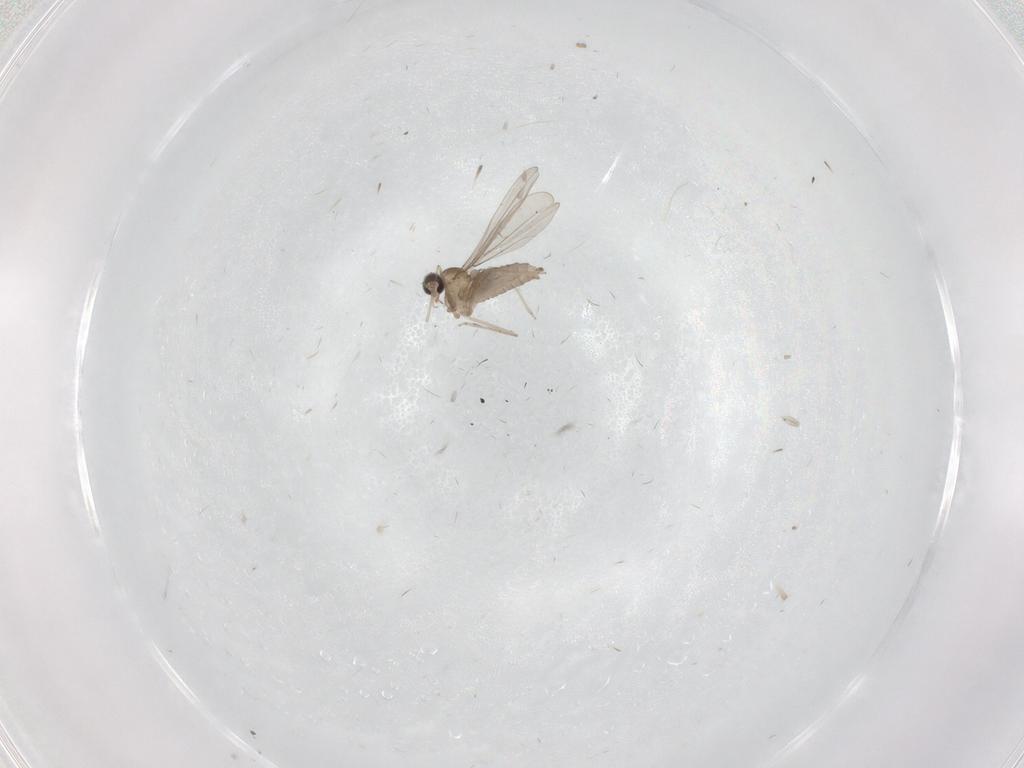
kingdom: Animalia
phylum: Arthropoda
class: Insecta
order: Diptera
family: Cecidomyiidae
